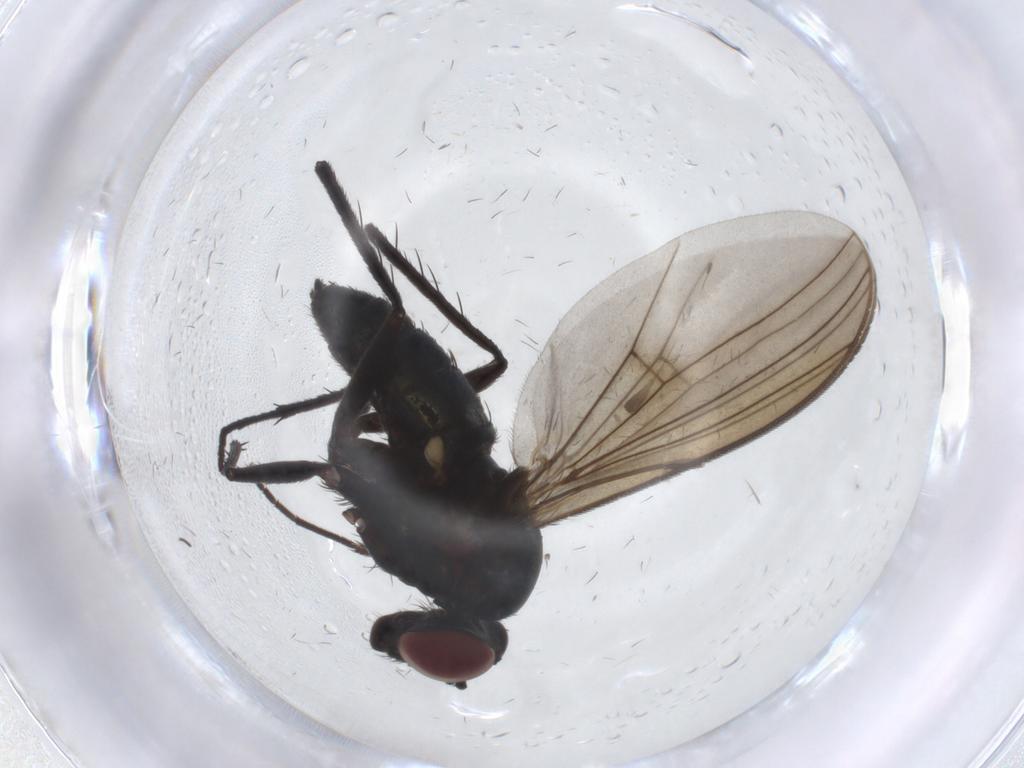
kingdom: Animalia
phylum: Arthropoda
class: Insecta
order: Diptera
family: Dolichopodidae
